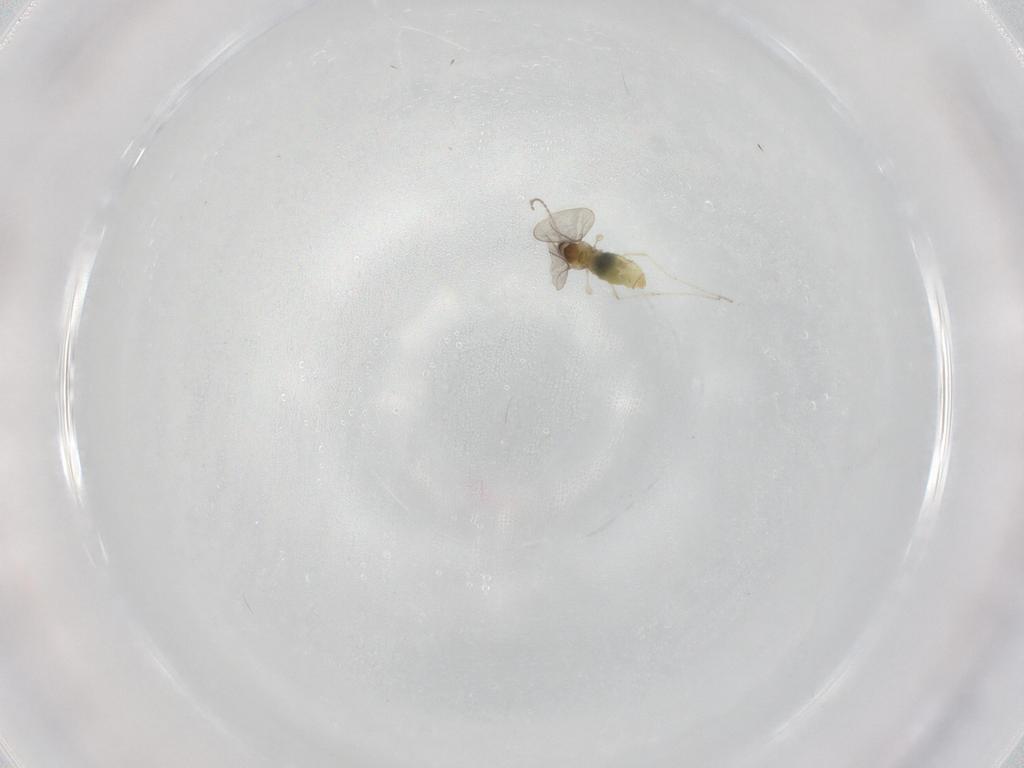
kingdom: Animalia
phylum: Arthropoda
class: Insecta
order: Diptera
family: Cecidomyiidae
